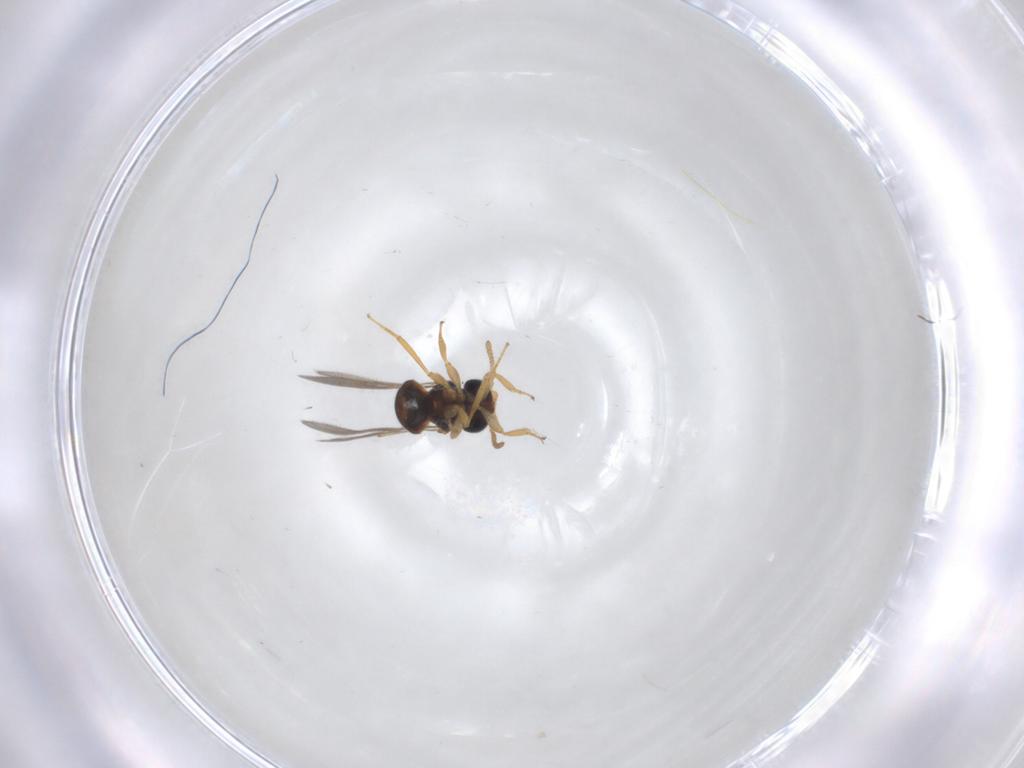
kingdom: Animalia
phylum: Arthropoda
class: Insecta
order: Hymenoptera
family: Scelionidae
